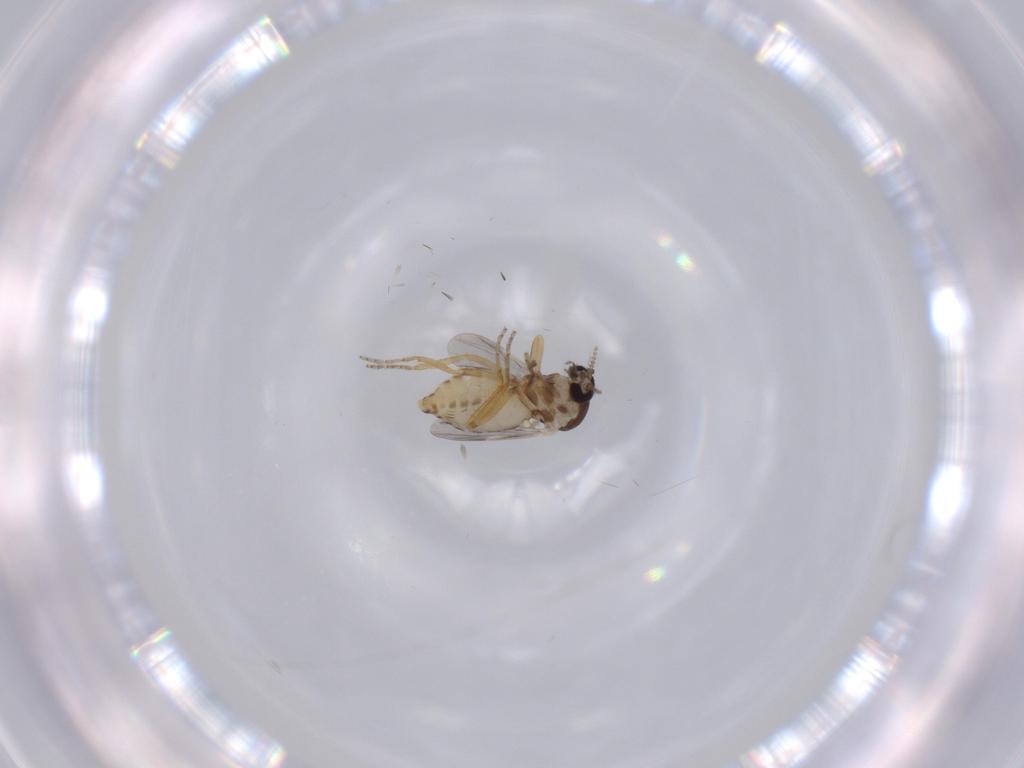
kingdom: Animalia
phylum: Arthropoda
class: Insecta
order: Diptera
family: Ceratopogonidae
